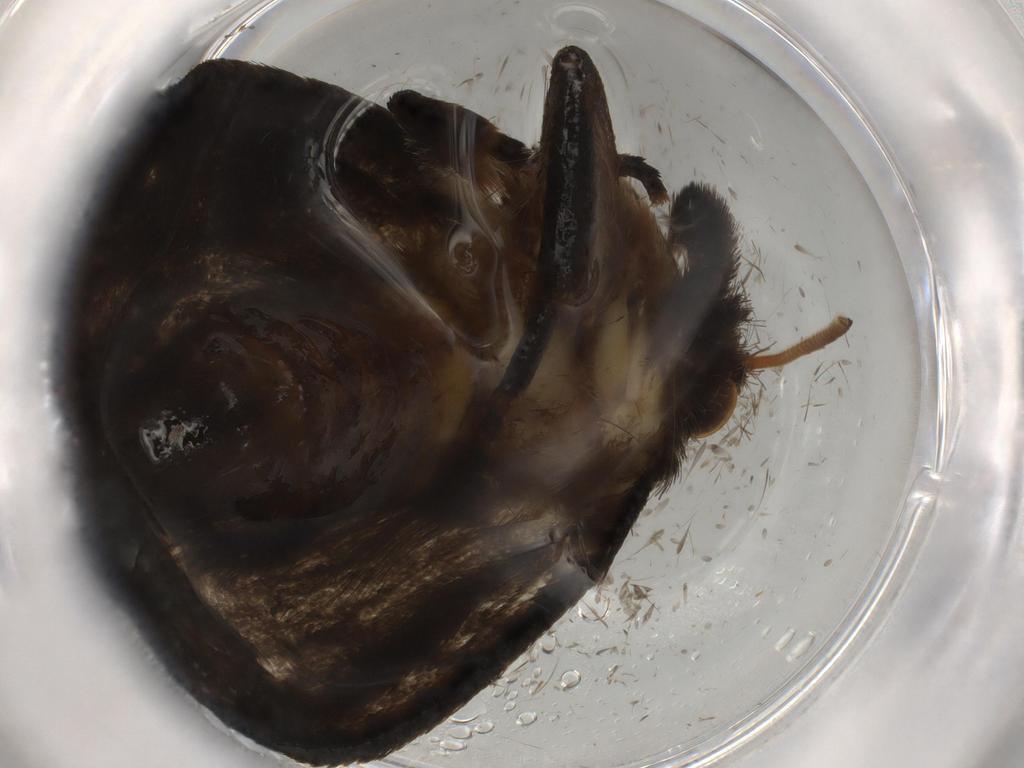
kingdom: Animalia
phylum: Arthropoda
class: Insecta
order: Lepidoptera
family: Tineidae
